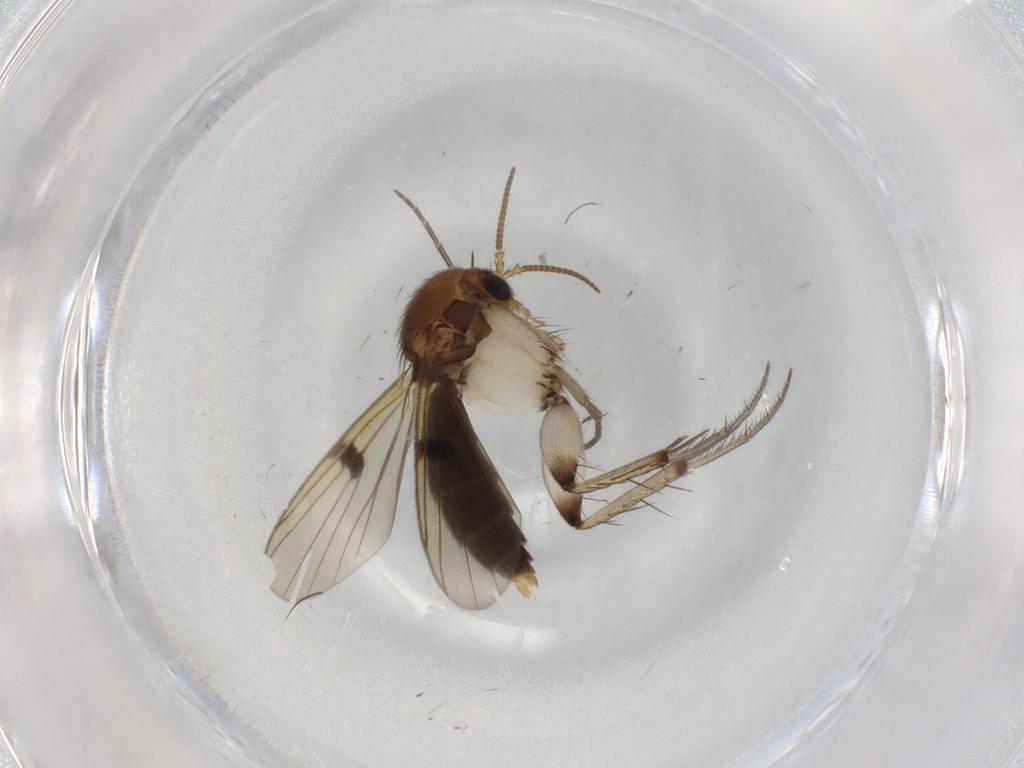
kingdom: Animalia
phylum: Arthropoda
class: Insecta
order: Diptera
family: Mycetophilidae
